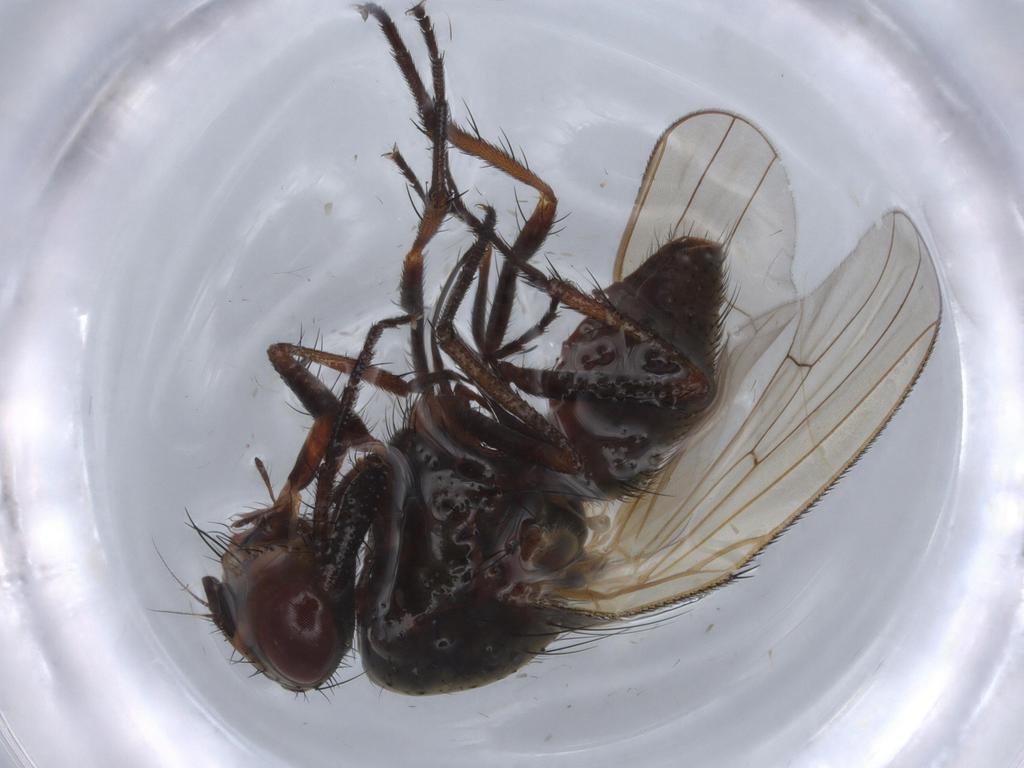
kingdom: Animalia
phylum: Arthropoda
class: Insecta
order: Diptera
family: Anthomyiidae
